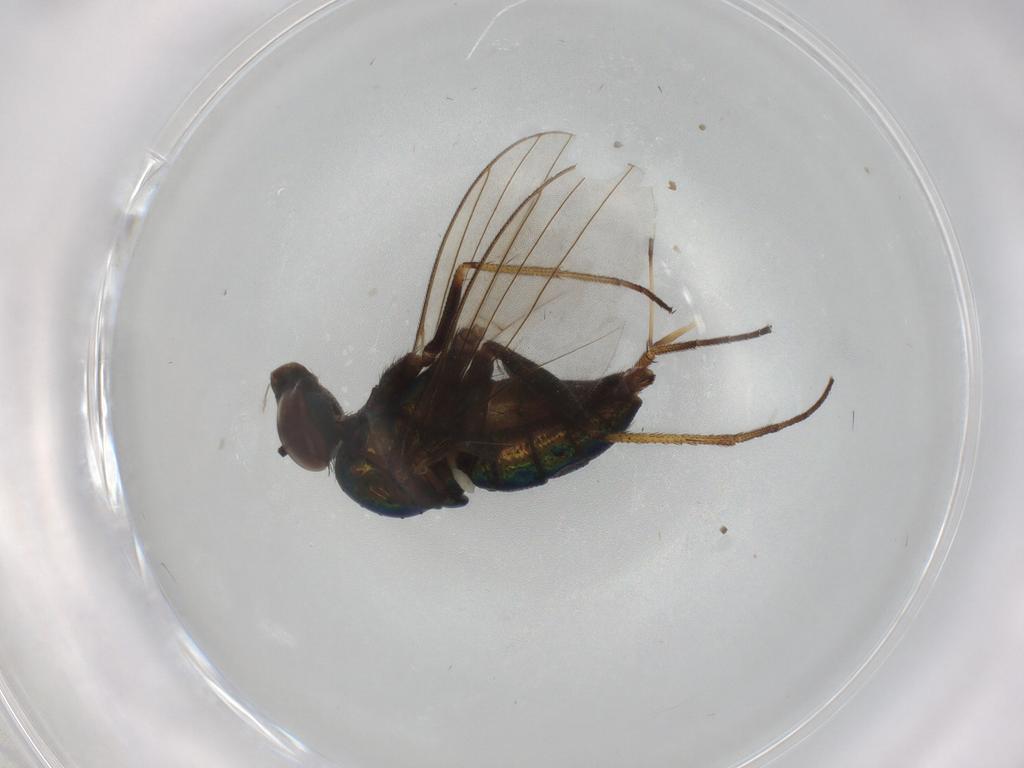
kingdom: Animalia
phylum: Arthropoda
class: Insecta
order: Diptera
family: Dolichopodidae
